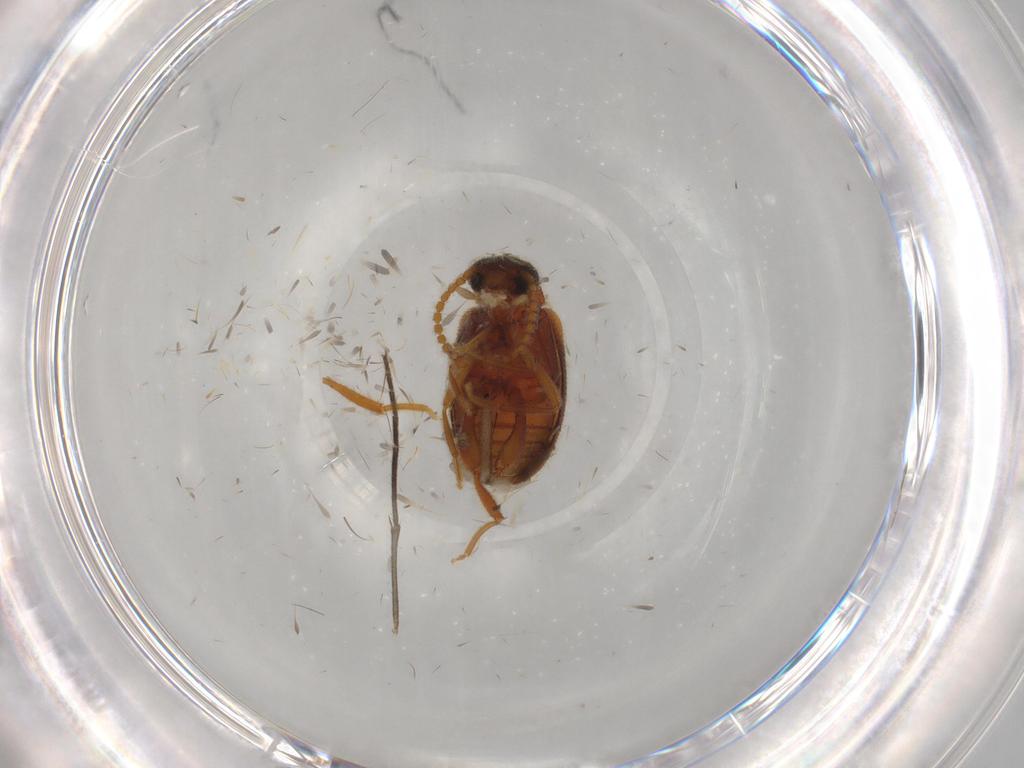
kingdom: Animalia
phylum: Arthropoda
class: Insecta
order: Coleoptera
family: Aderidae
